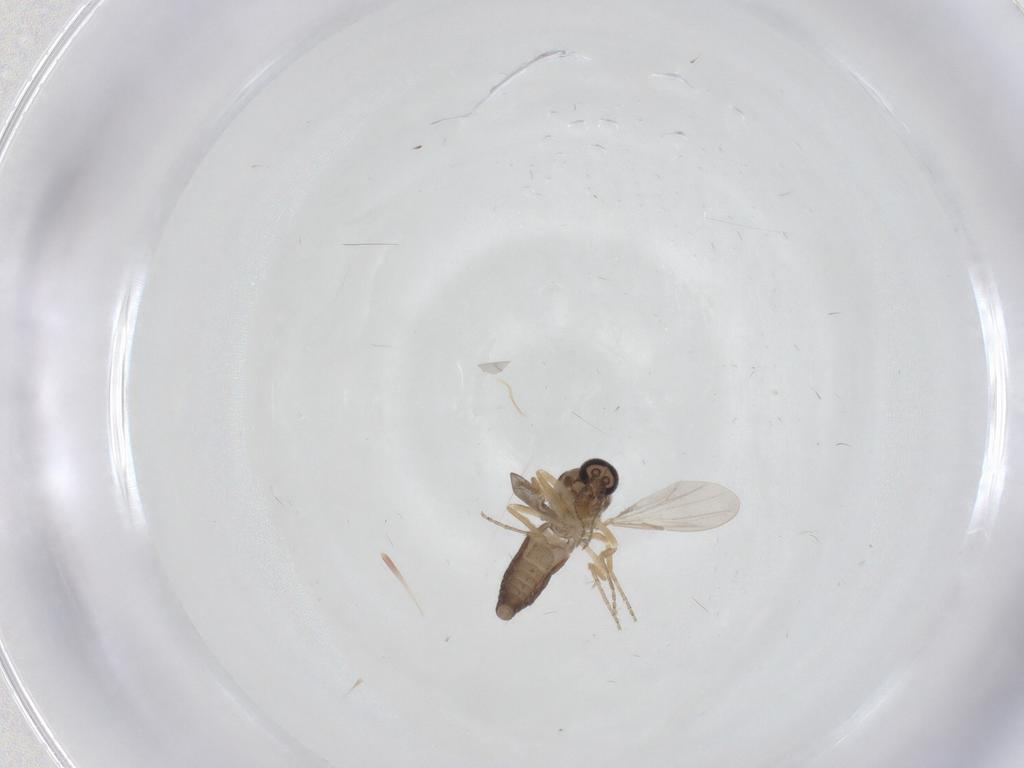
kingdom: Animalia
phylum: Arthropoda
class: Insecta
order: Diptera
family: Ceratopogonidae
